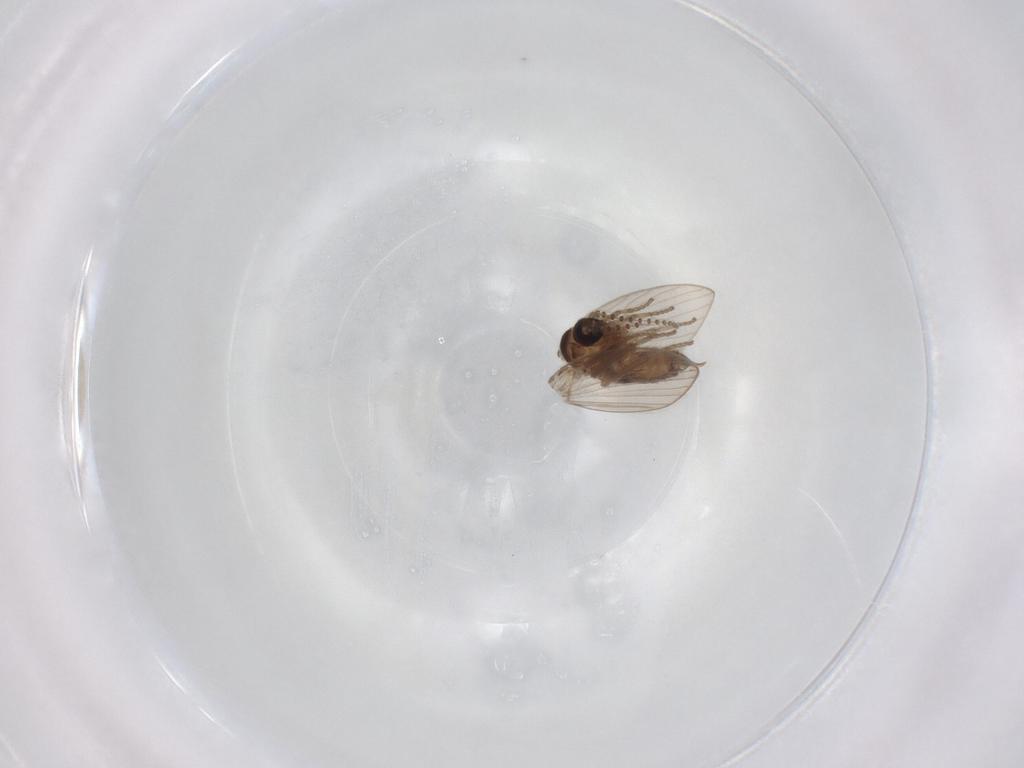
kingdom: Animalia
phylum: Arthropoda
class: Insecta
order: Diptera
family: Psychodidae
